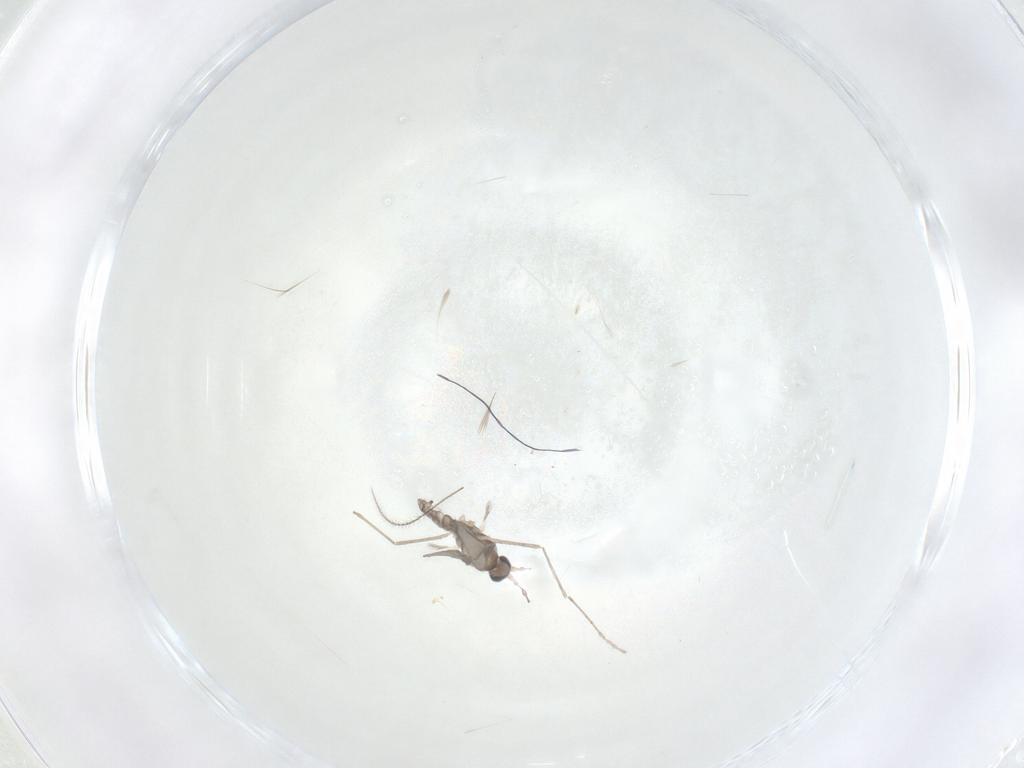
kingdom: Animalia
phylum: Arthropoda
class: Insecta
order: Diptera
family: Cecidomyiidae
